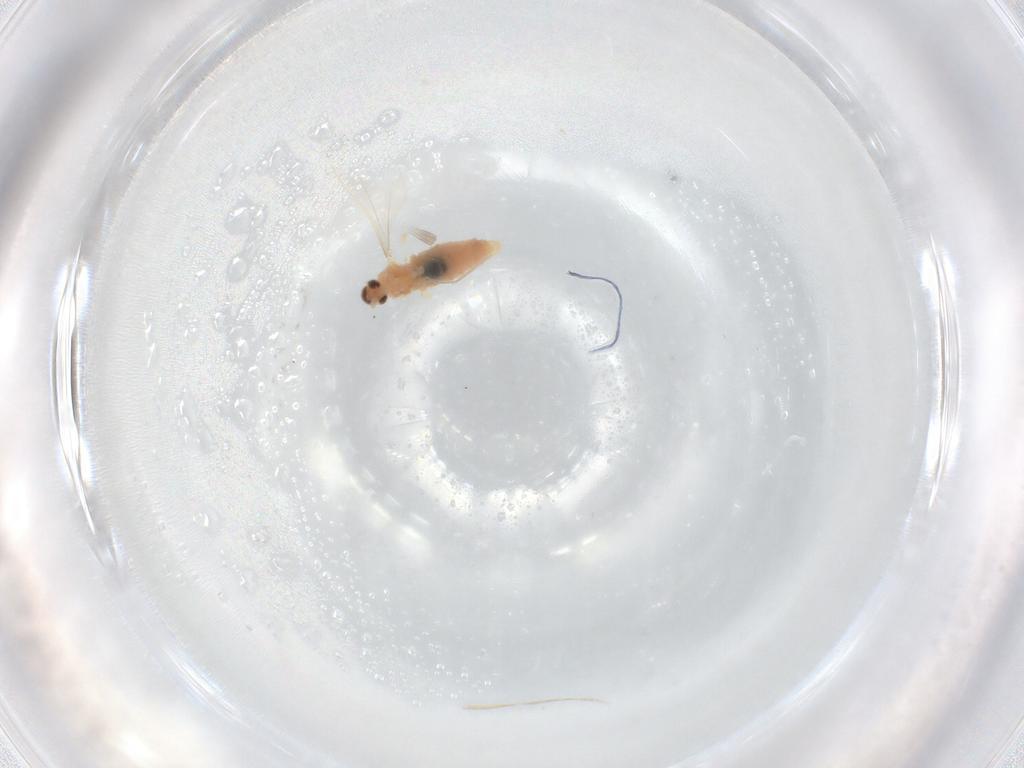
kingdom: Animalia
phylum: Arthropoda
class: Insecta
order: Diptera
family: Cecidomyiidae
